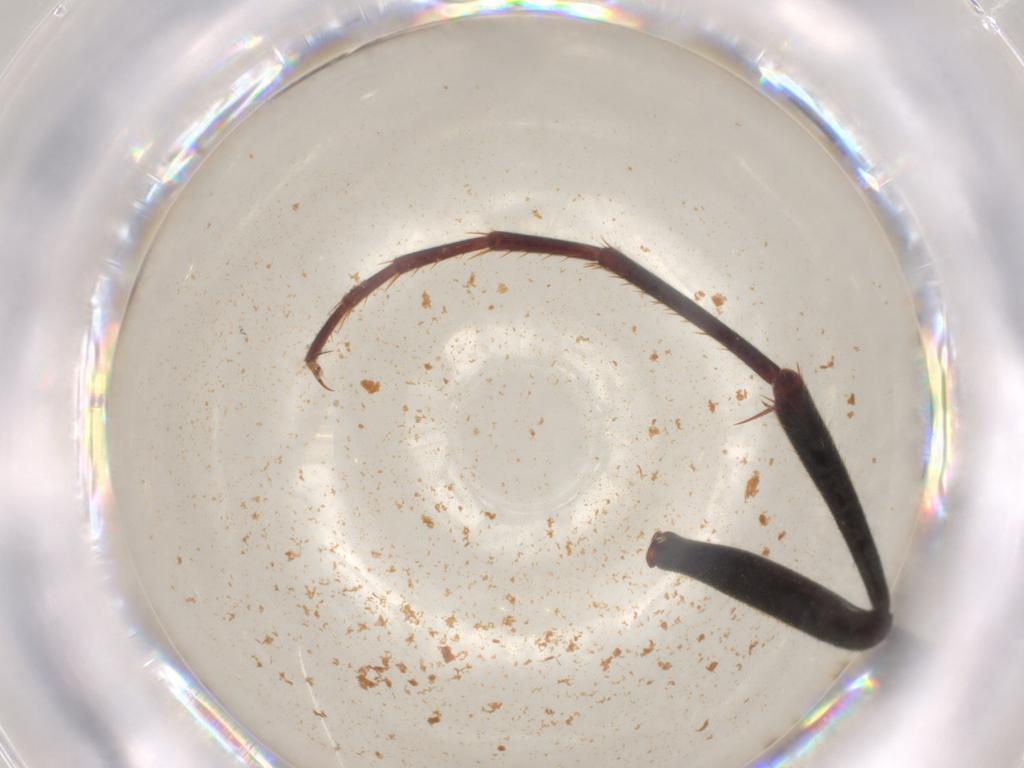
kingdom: Animalia
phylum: Arthropoda
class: Insecta
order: Hymenoptera
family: Formicidae
